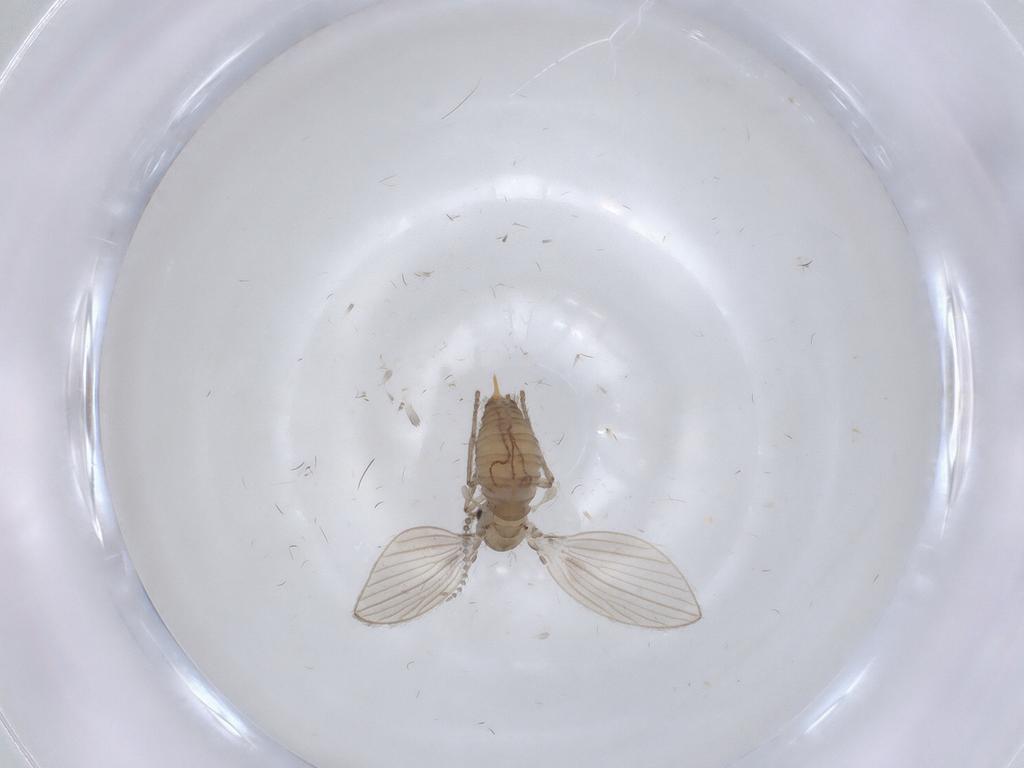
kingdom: Animalia
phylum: Arthropoda
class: Insecta
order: Diptera
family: Psychodidae
